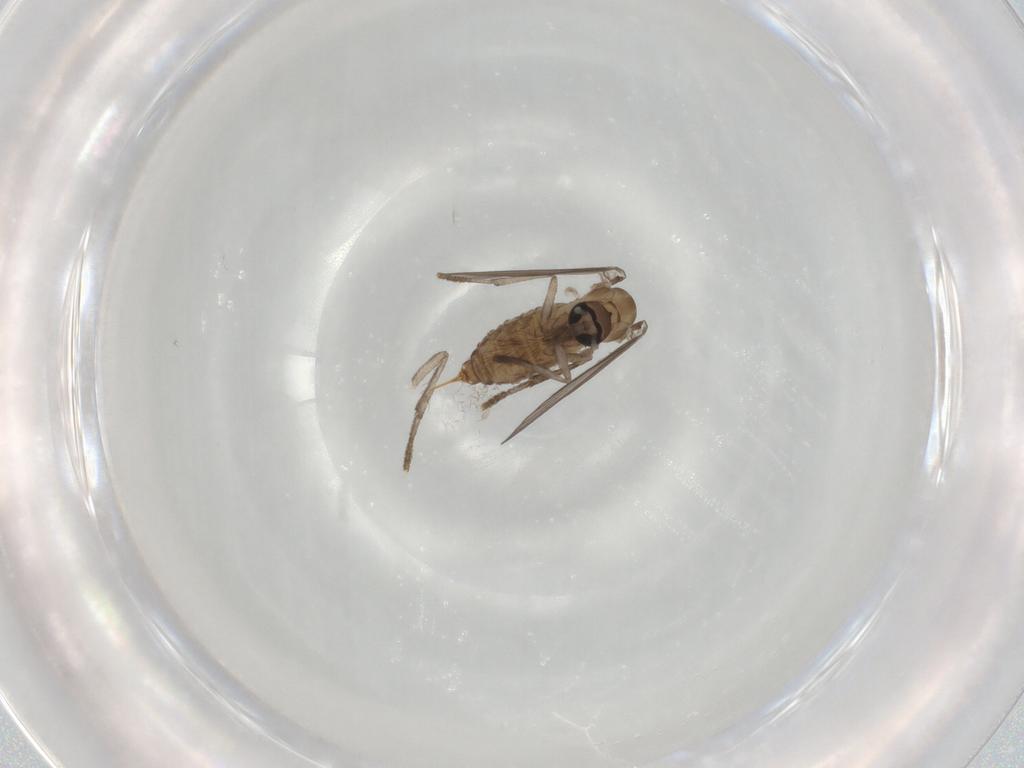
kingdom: Animalia
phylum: Arthropoda
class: Insecta
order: Diptera
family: Psychodidae
